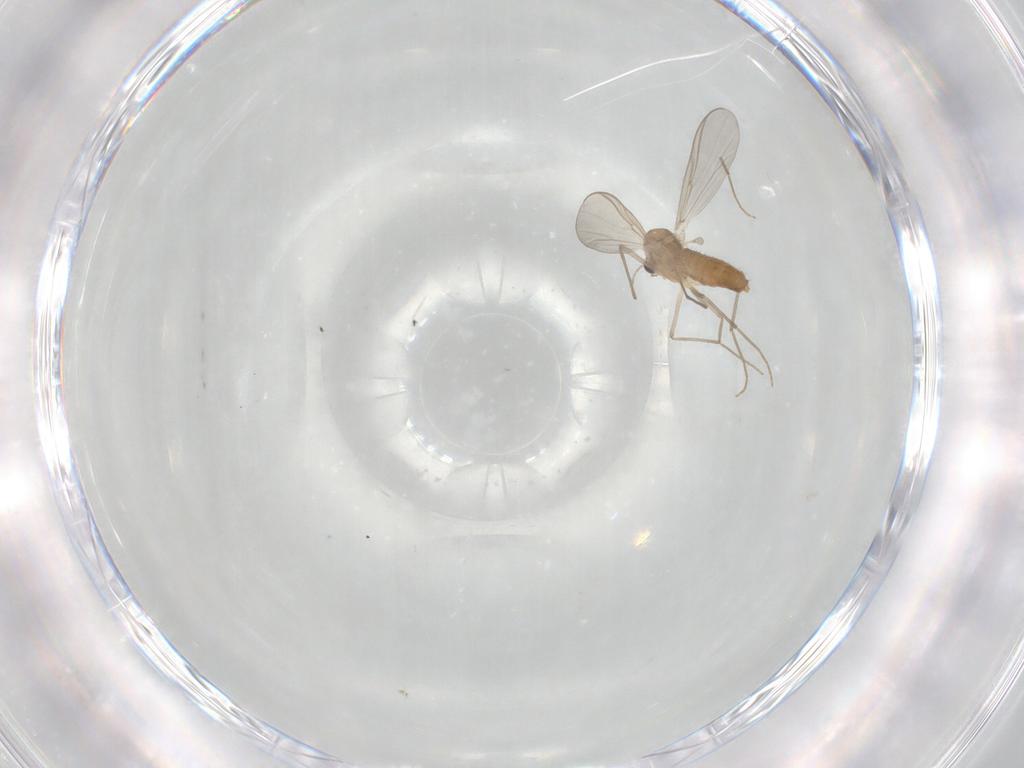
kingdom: Animalia
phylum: Arthropoda
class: Insecta
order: Diptera
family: Chironomidae
